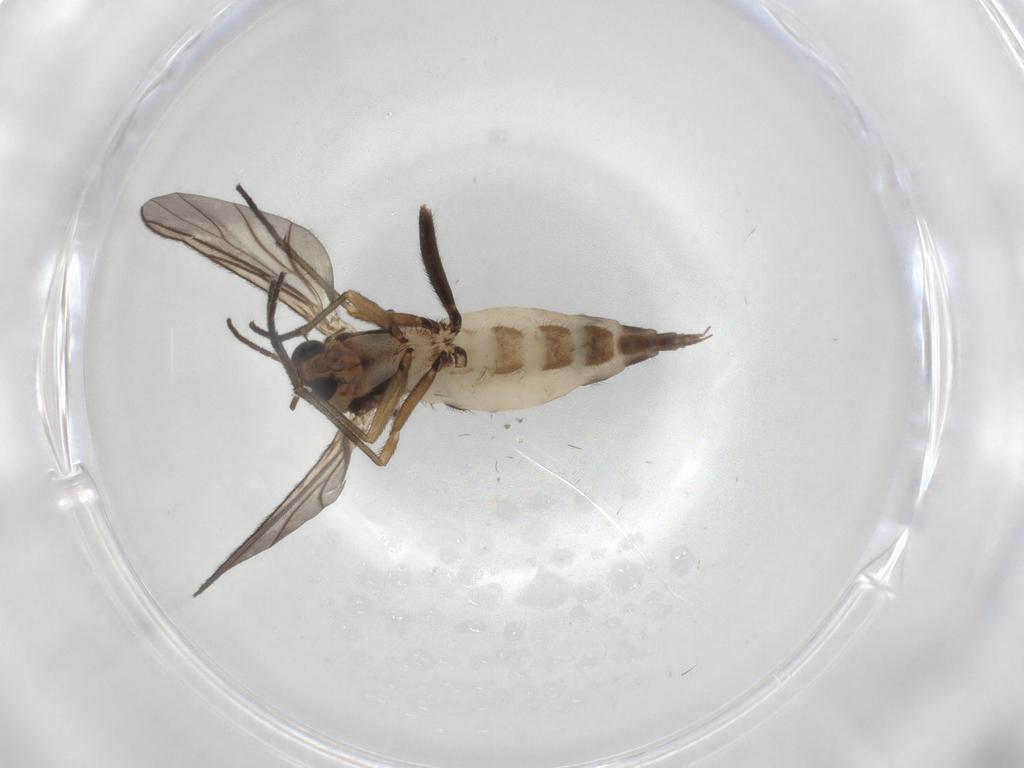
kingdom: Animalia
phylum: Arthropoda
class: Insecta
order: Diptera
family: Sciaridae
